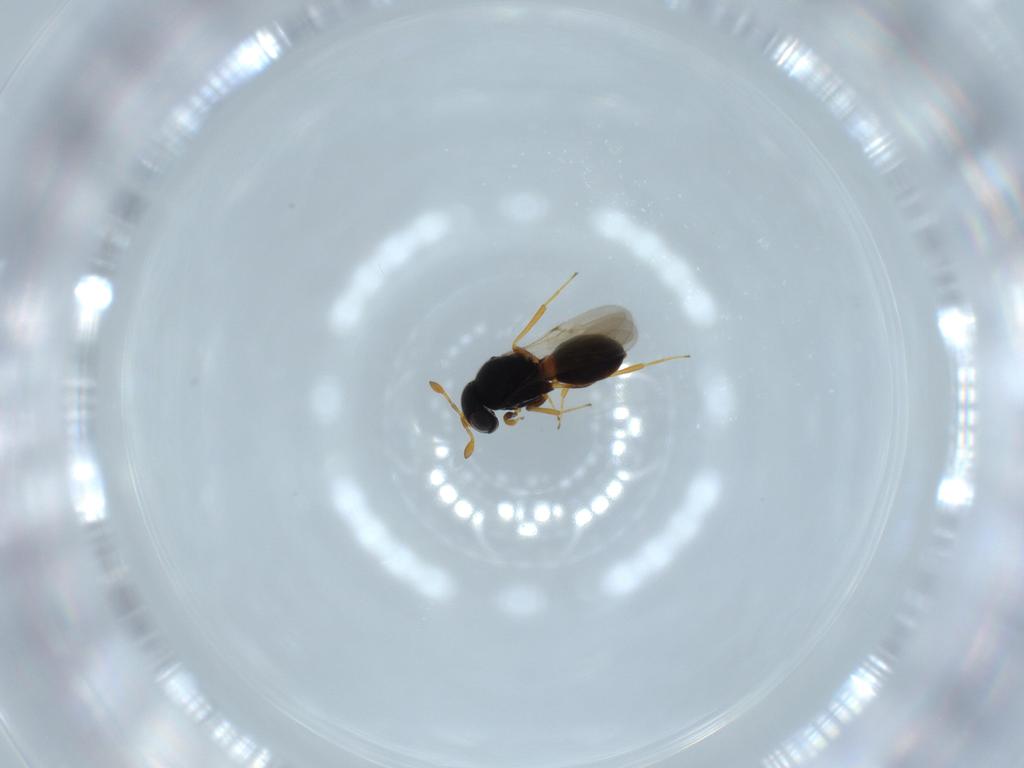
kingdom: Animalia
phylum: Arthropoda
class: Insecta
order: Hymenoptera
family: Scelionidae
